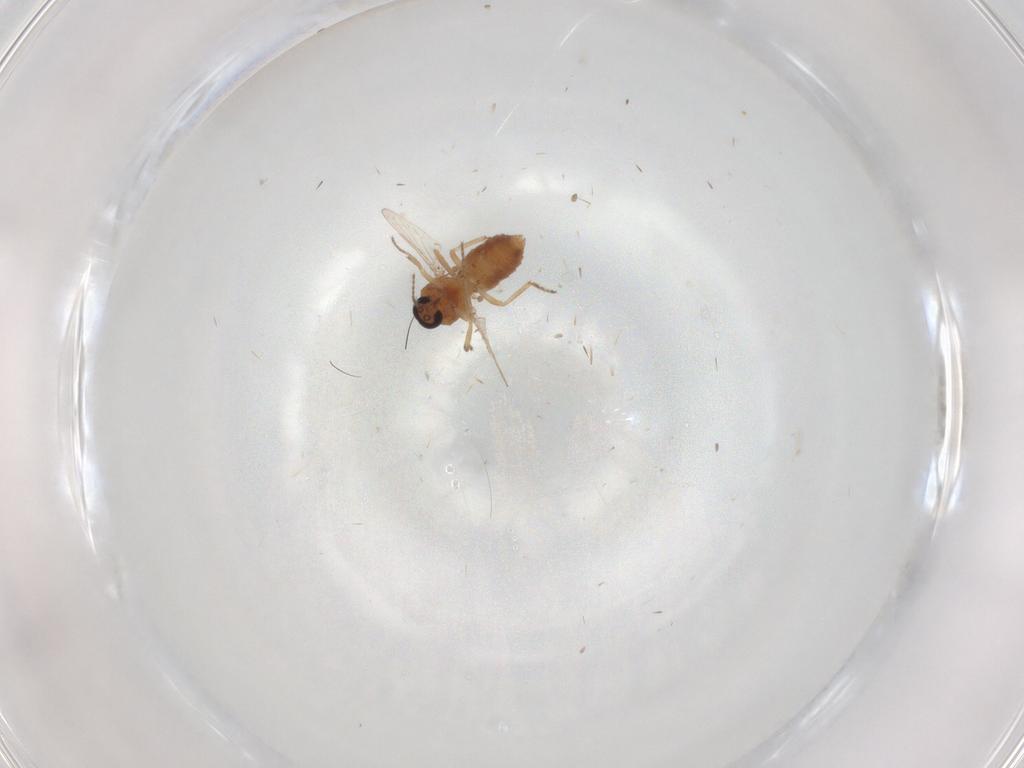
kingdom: Animalia
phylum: Arthropoda
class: Insecta
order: Diptera
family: Ceratopogonidae
